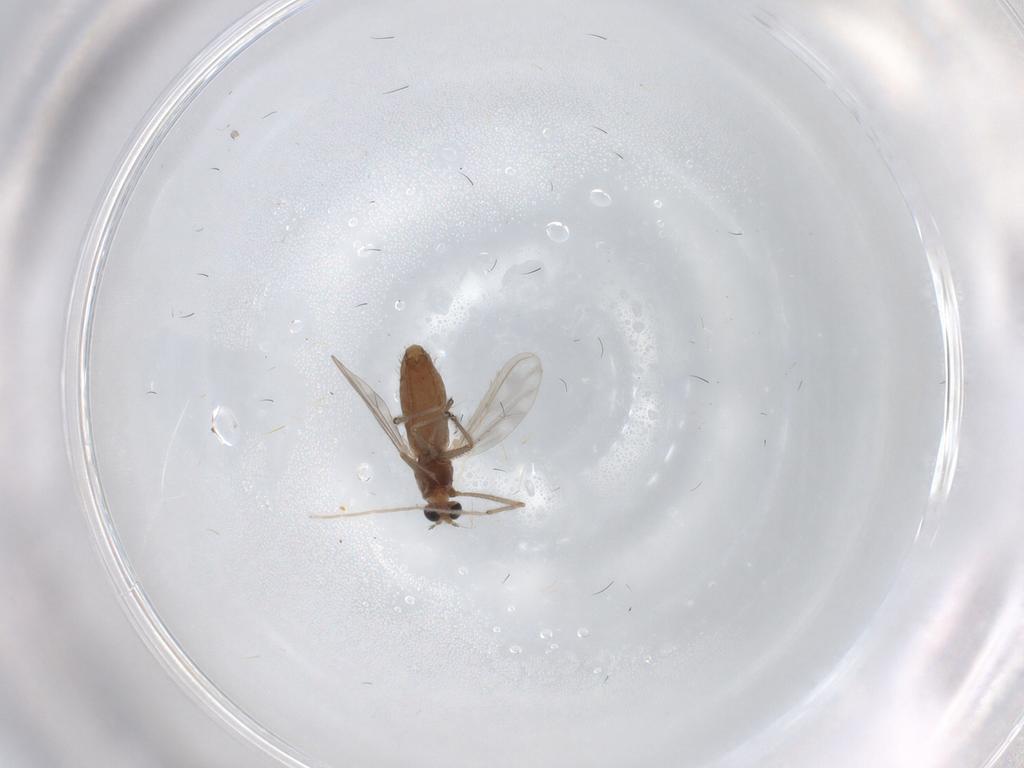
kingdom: Animalia
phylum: Arthropoda
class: Insecta
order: Diptera
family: Chironomidae
